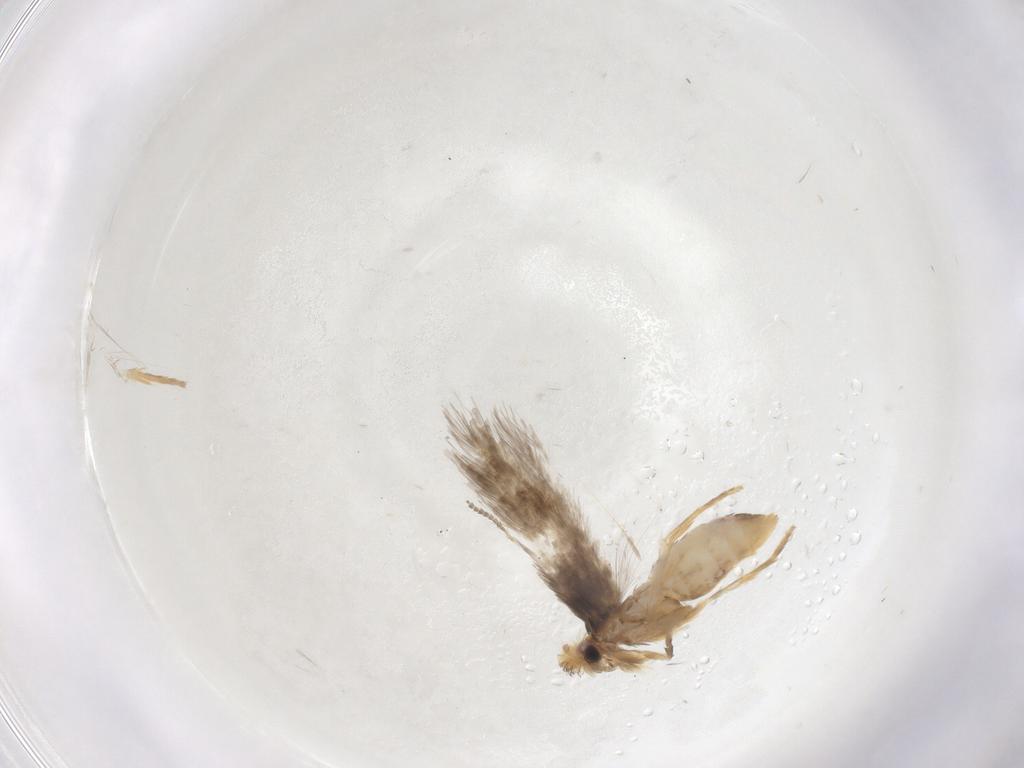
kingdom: Animalia
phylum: Arthropoda
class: Insecta
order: Lepidoptera
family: Nepticulidae
